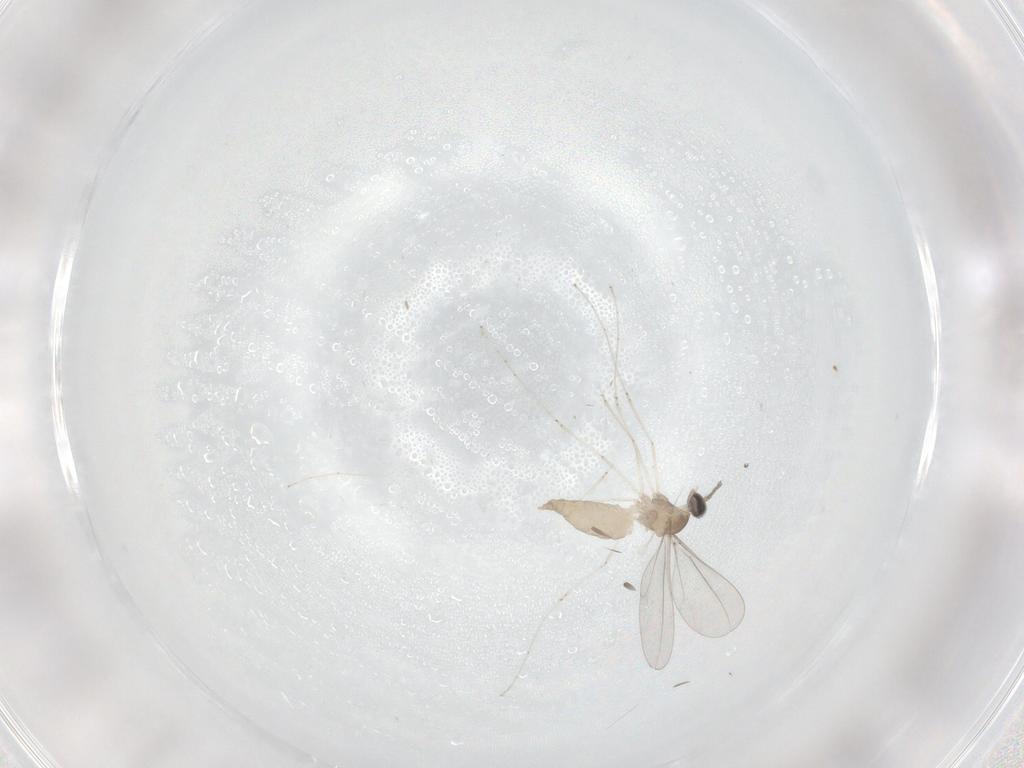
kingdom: Animalia
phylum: Arthropoda
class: Insecta
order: Diptera
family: Cecidomyiidae
